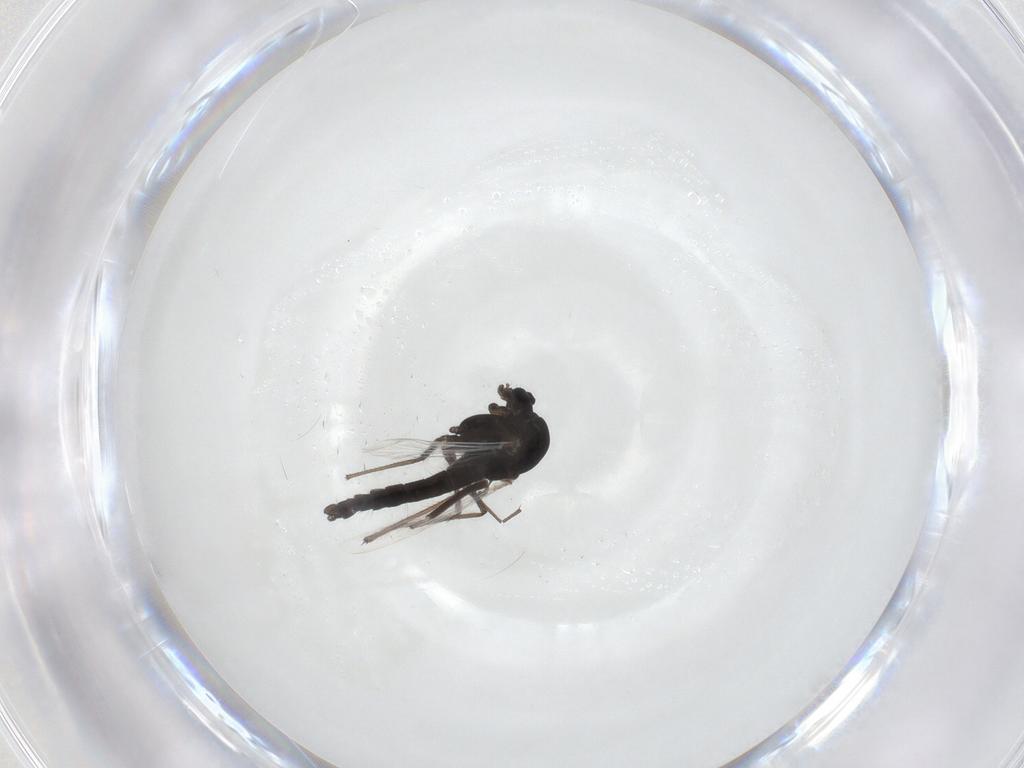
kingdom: Animalia
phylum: Arthropoda
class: Insecta
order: Diptera
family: Chironomidae
